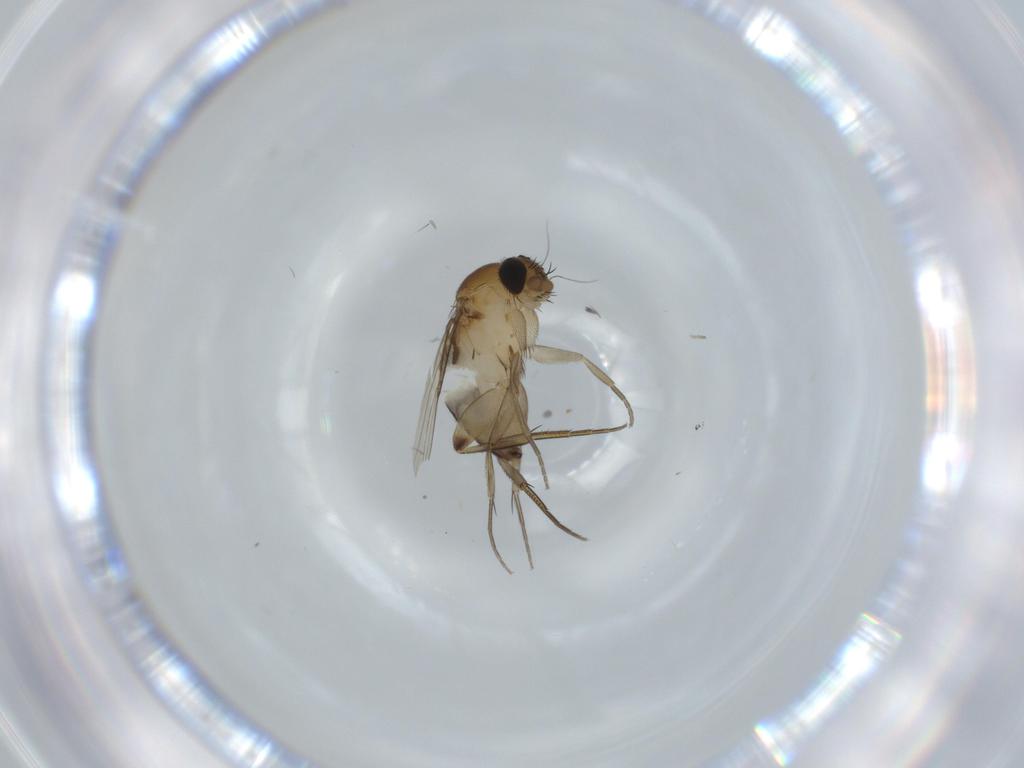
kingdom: Animalia
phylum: Arthropoda
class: Insecta
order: Diptera
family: Phoridae
